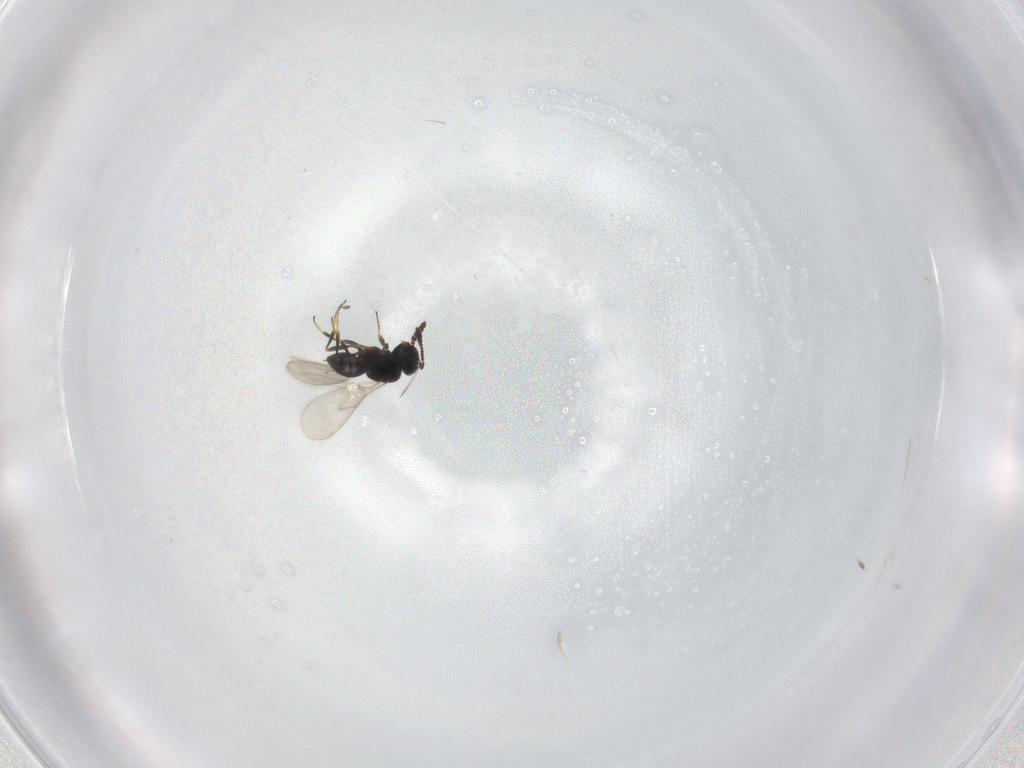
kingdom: Animalia
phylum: Arthropoda
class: Insecta
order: Hymenoptera
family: Scelionidae
